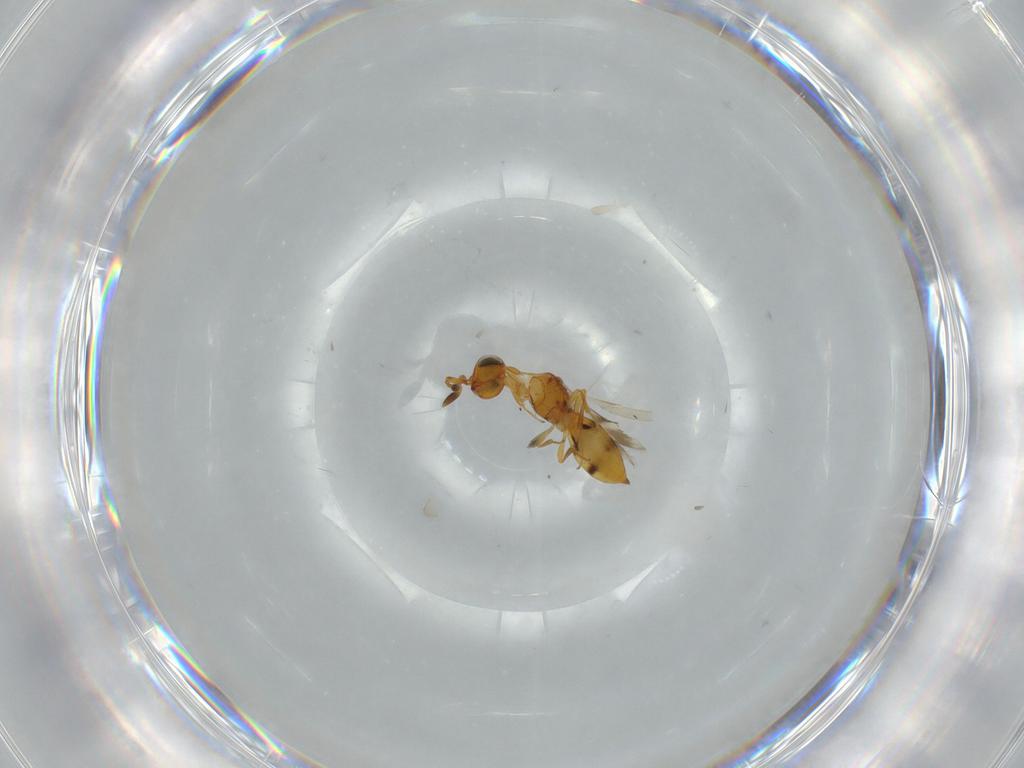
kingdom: Animalia
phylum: Arthropoda
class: Insecta
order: Hymenoptera
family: Scelionidae
